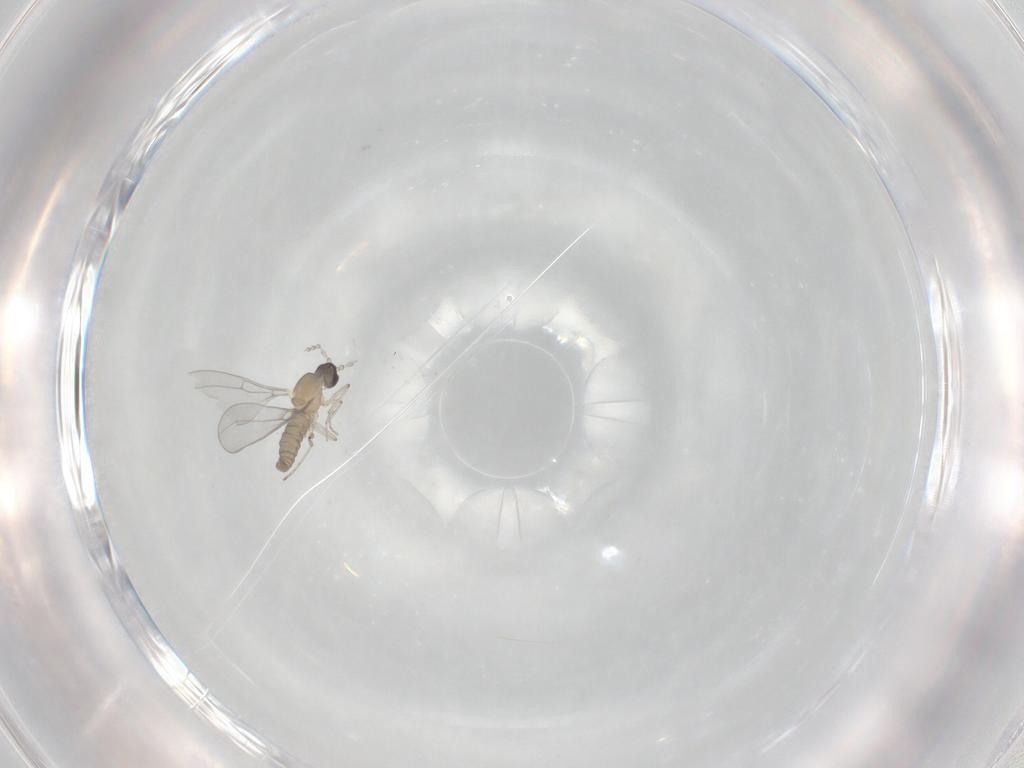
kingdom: Animalia
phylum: Arthropoda
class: Insecta
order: Diptera
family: Cecidomyiidae
